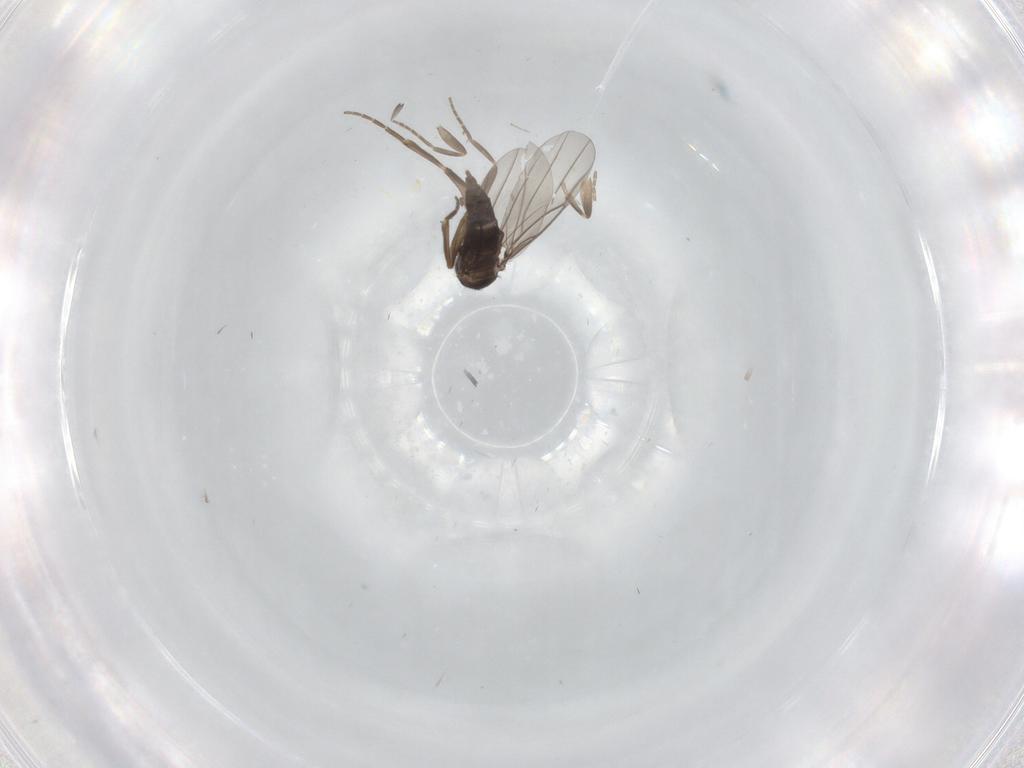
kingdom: Animalia
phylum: Arthropoda
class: Insecta
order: Diptera
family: Phoridae
